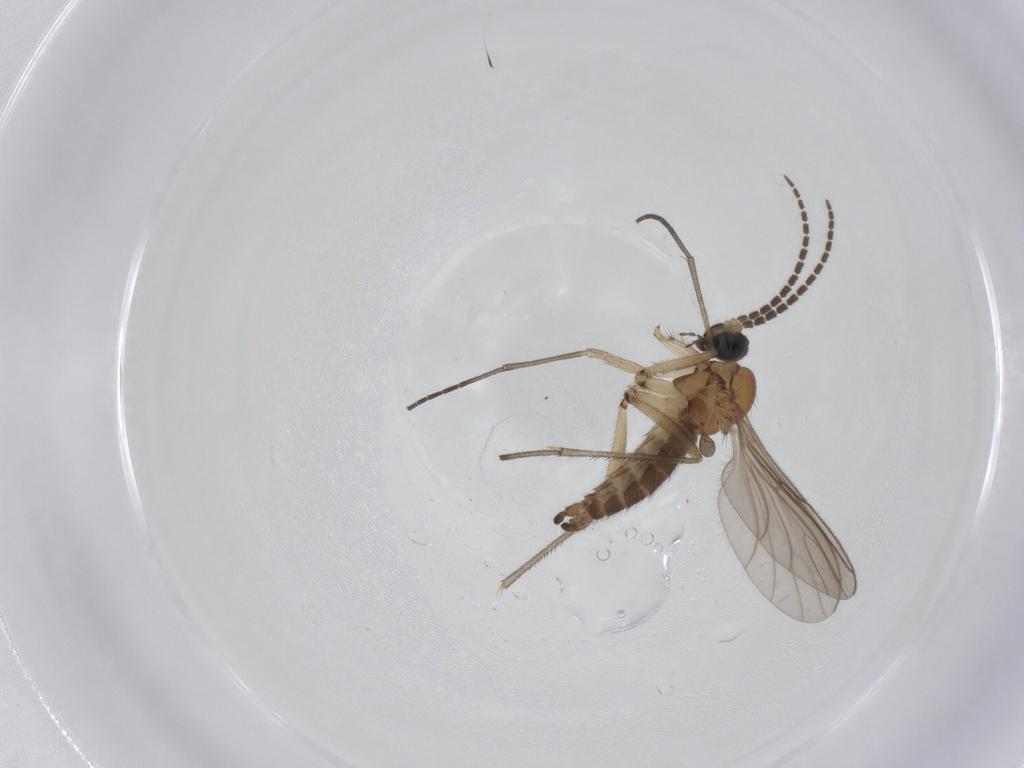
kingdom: Animalia
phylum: Arthropoda
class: Insecta
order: Diptera
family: Sciaridae
